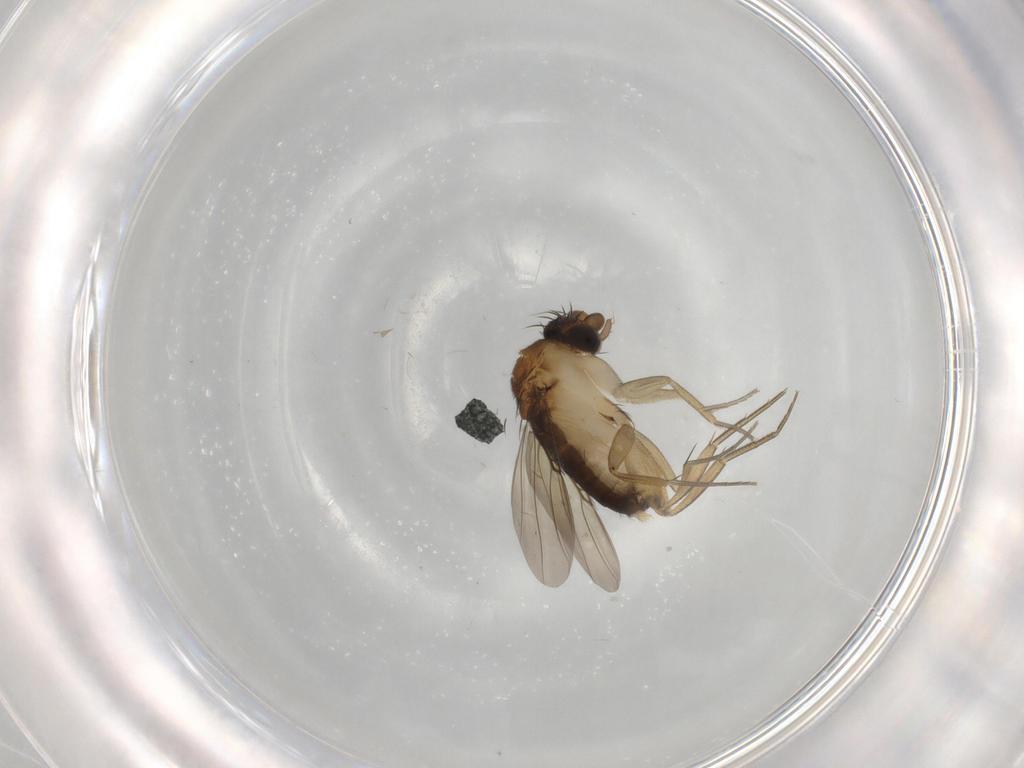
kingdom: Animalia
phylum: Arthropoda
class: Insecta
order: Diptera
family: Phoridae
